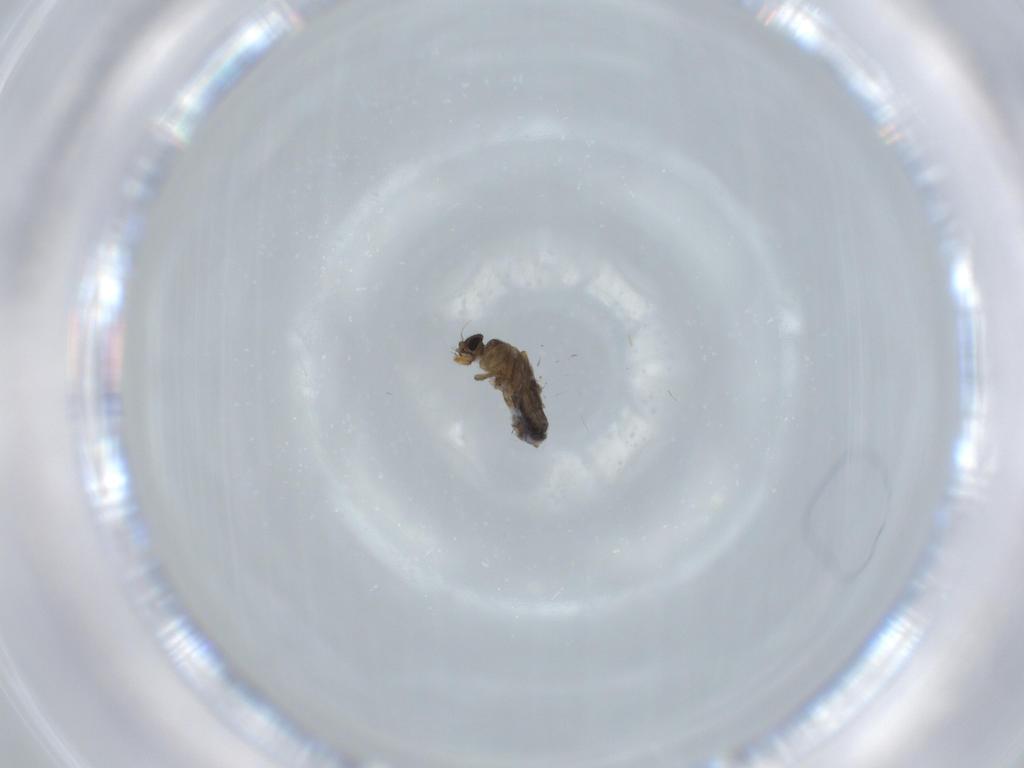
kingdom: Animalia
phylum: Arthropoda
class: Insecta
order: Diptera
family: Phoridae
